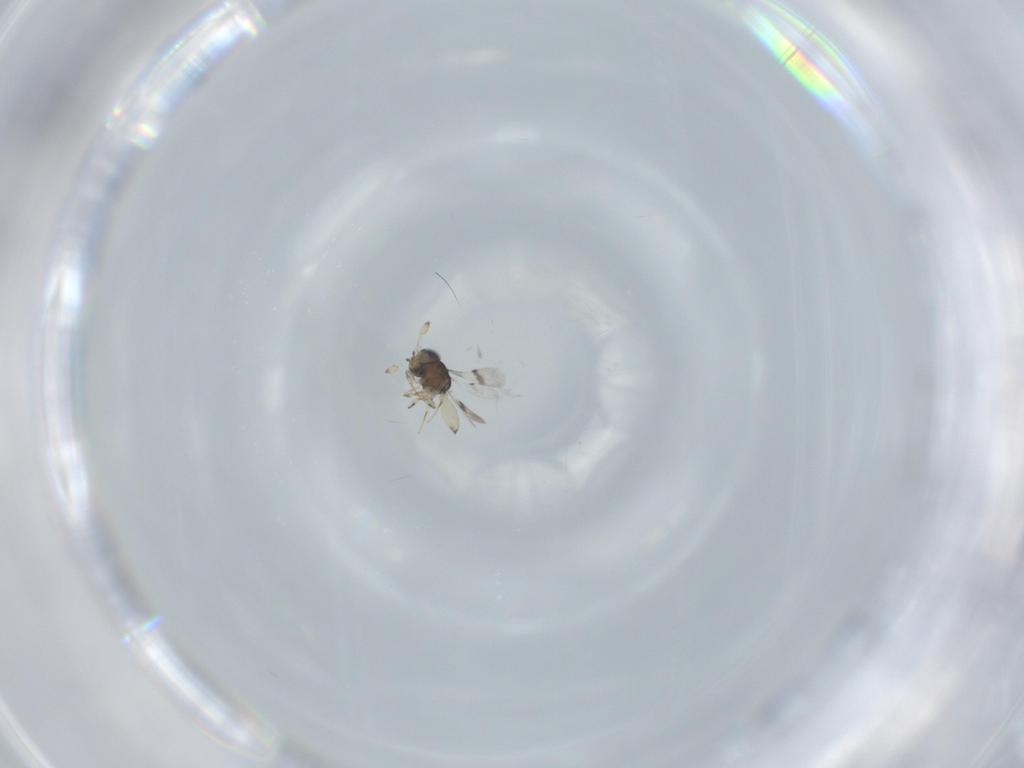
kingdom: Animalia
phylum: Arthropoda
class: Insecta
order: Hymenoptera
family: Scelionidae
